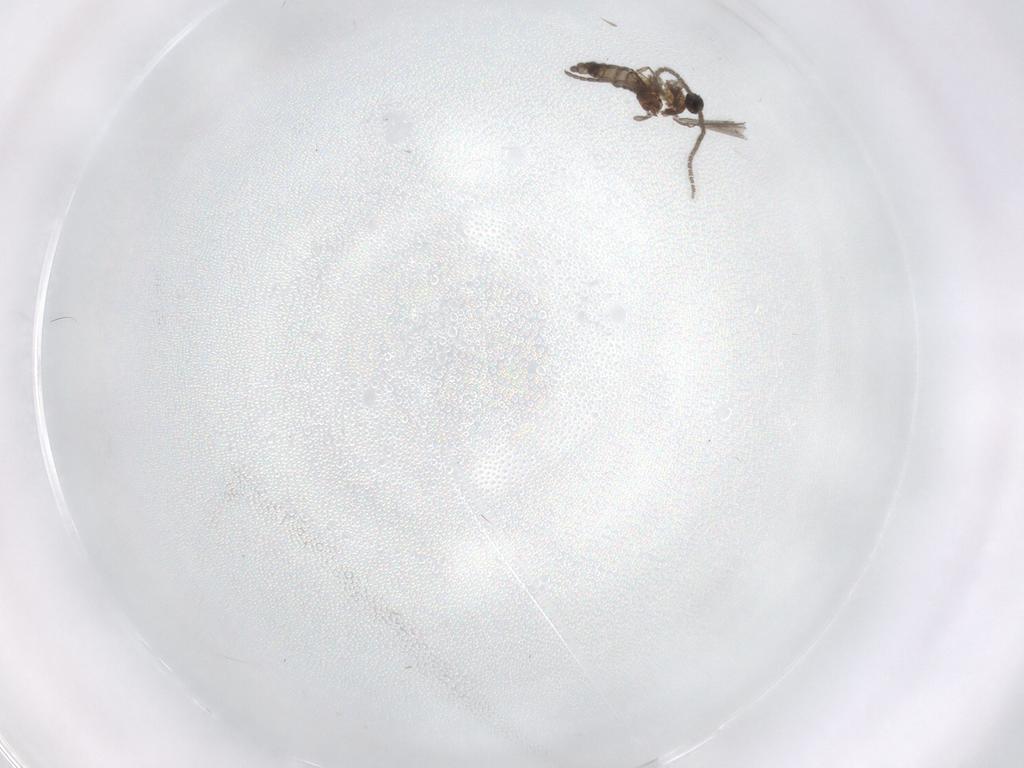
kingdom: Animalia
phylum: Arthropoda
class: Insecta
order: Diptera
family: Sciaridae
